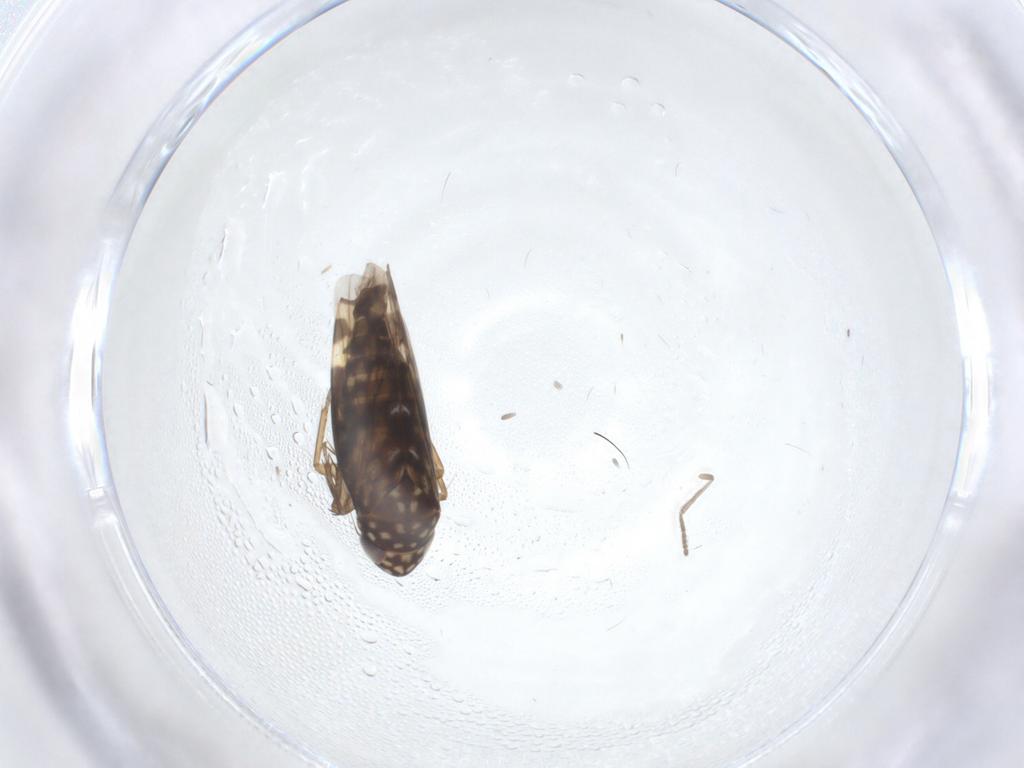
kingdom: Animalia
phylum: Arthropoda
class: Insecta
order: Hemiptera
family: Cicadellidae
